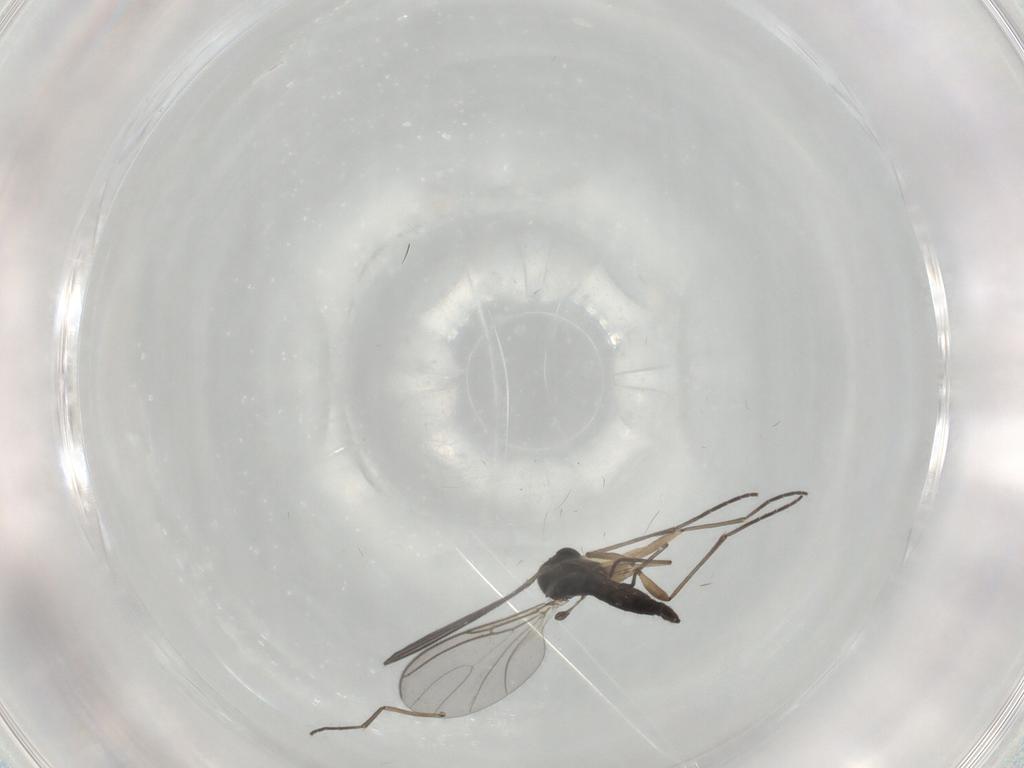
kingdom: Animalia
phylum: Arthropoda
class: Insecta
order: Diptera
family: Sciaridae
